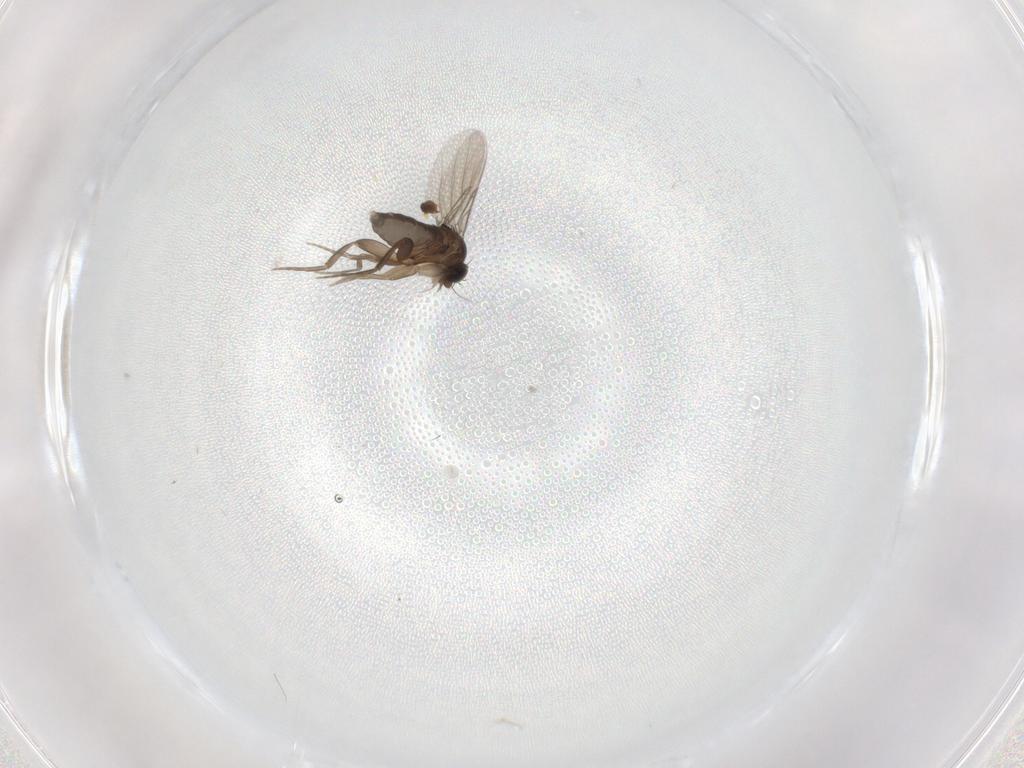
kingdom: Animalia
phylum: Arthropoda
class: Insecta
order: Diptera
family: Phoridae
